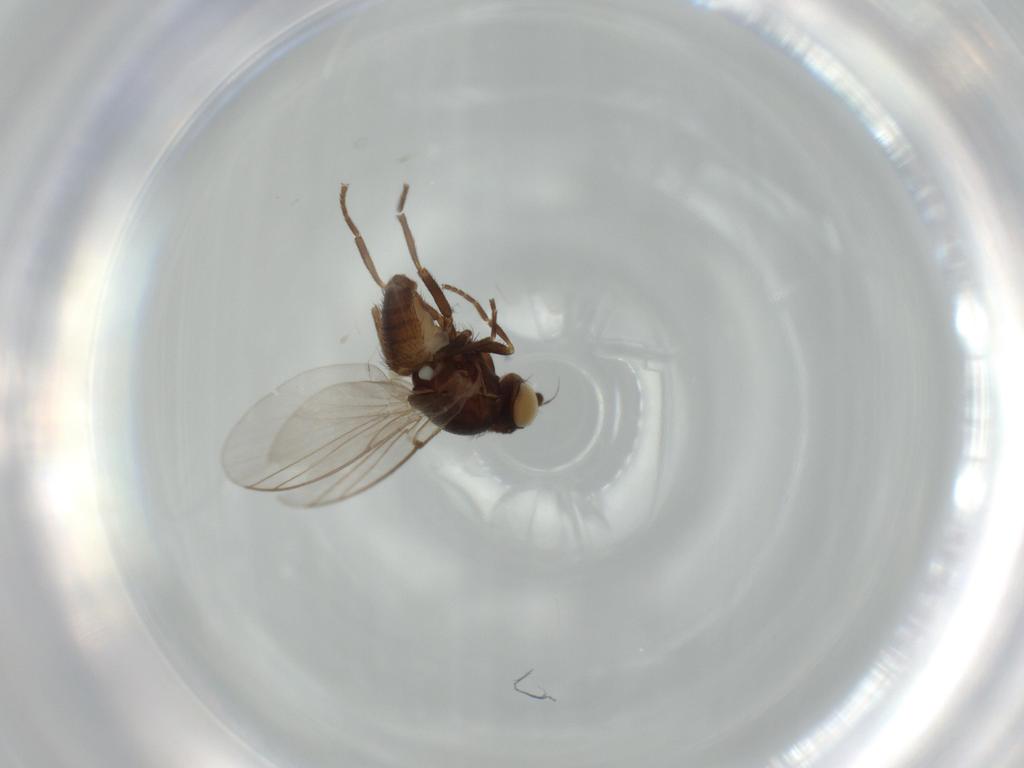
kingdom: Animalia
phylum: Arthropoda
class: Insecta
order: Diptera
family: Agromyzidae
